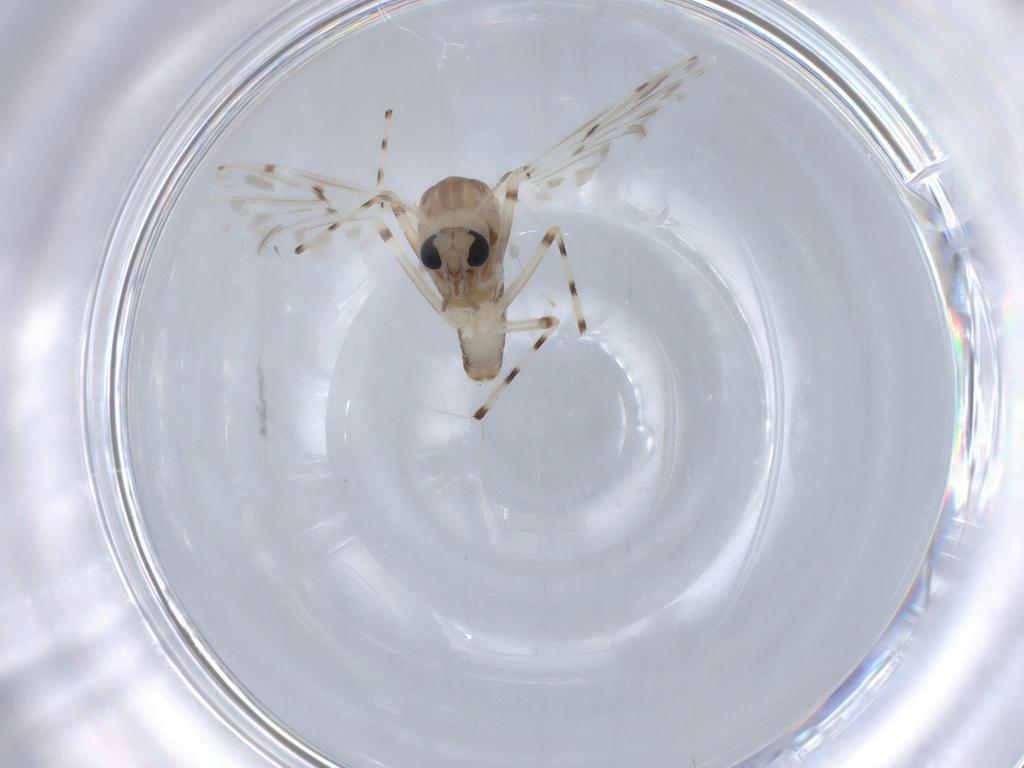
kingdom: Animalia
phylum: Arthropoda
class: Insecta
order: Diptera
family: Chironomidae
